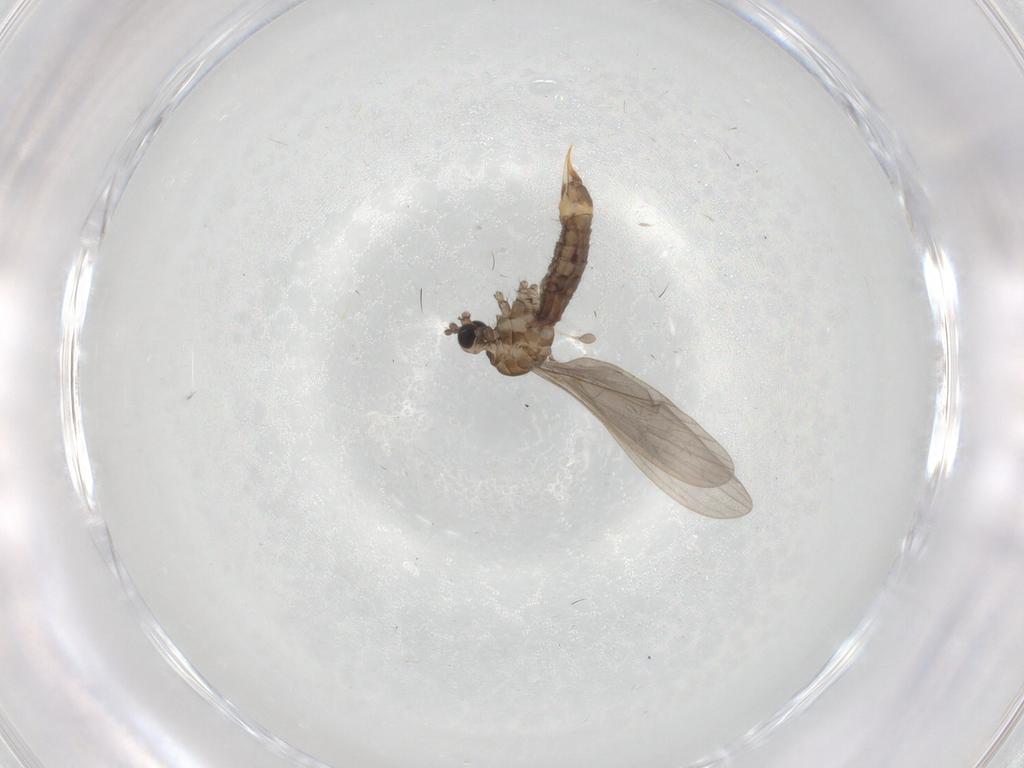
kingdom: Animalia
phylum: Arthropoda
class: Insecta
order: Diptera
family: Limoniidae
